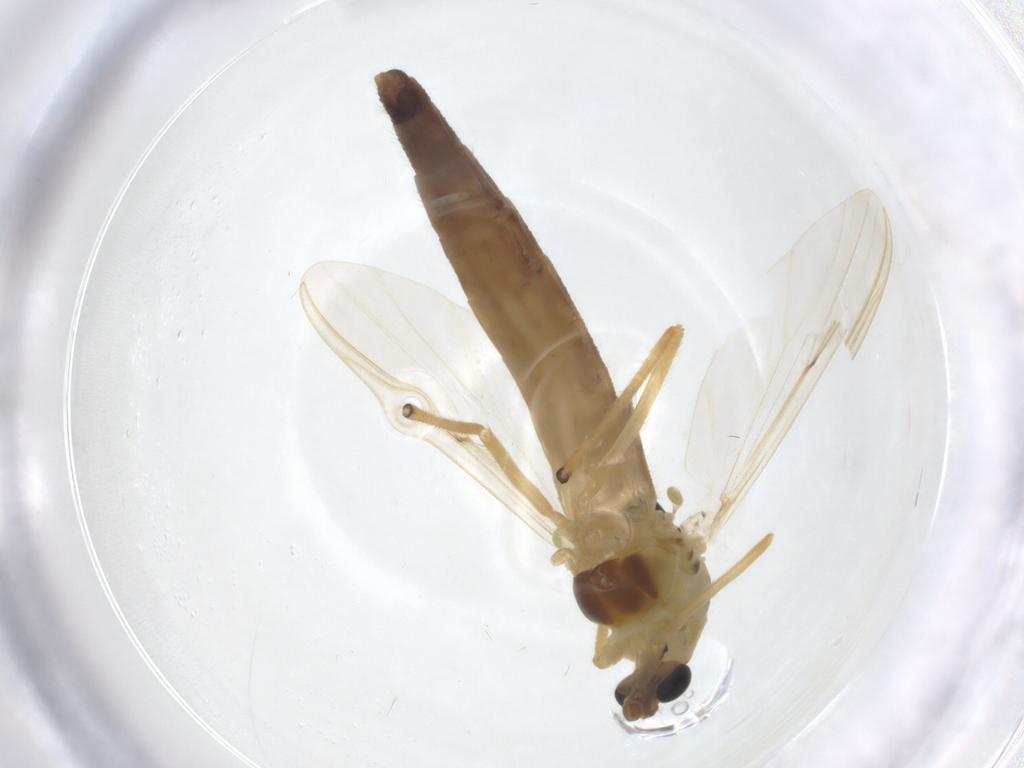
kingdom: Animalia
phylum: Arthropoda
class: Insecta
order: Diptera
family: Chironomidae
